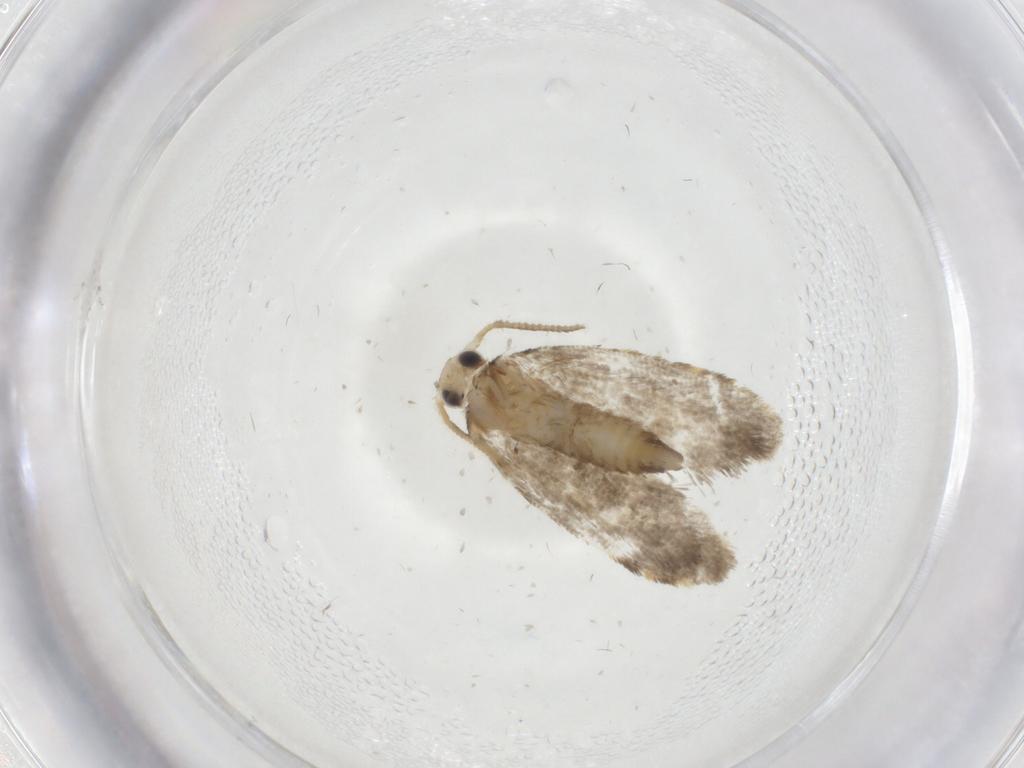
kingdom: Animalia
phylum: Arthropoda
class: Insecta
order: Lepidoptera
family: Psychidae
